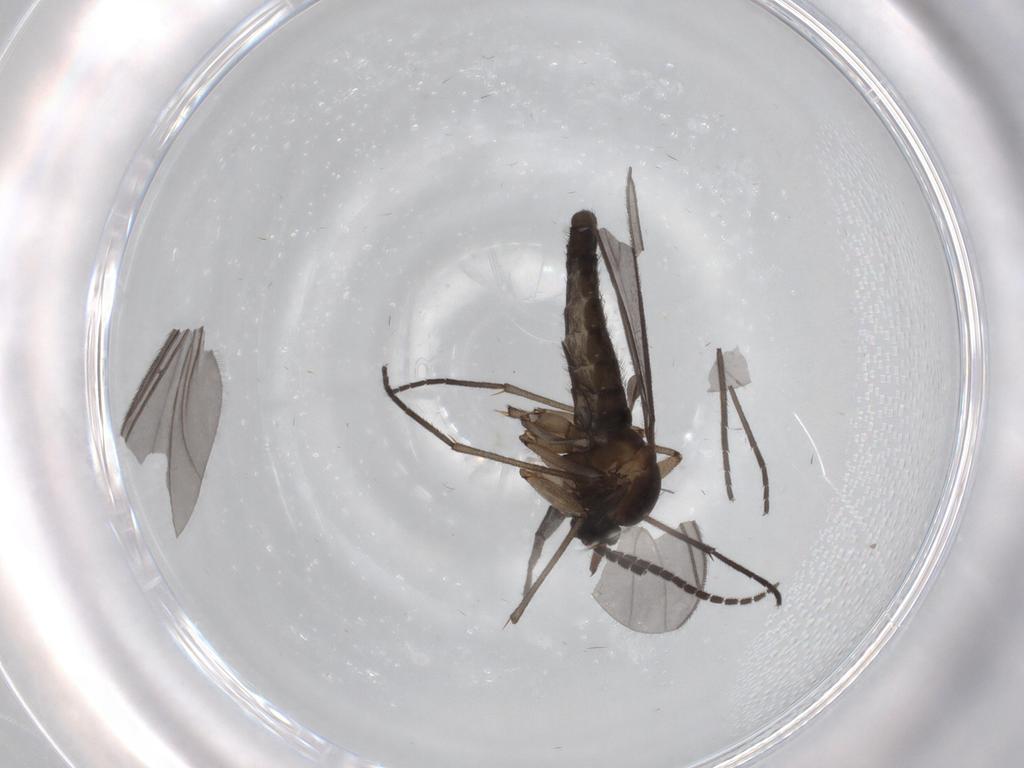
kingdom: Animalia
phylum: Arthropoda
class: Insecta
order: Diptera
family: Sciaridae
